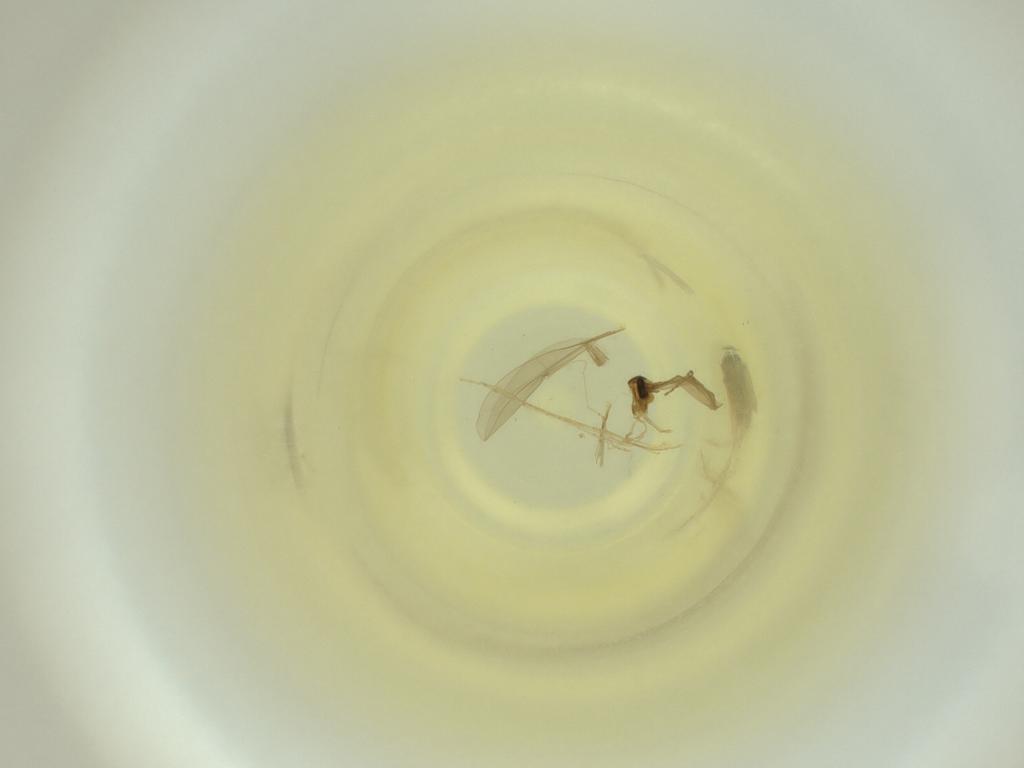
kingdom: Animalia
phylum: Arthropoda
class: Insecta
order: Diptera
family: Cecidomyiidae
